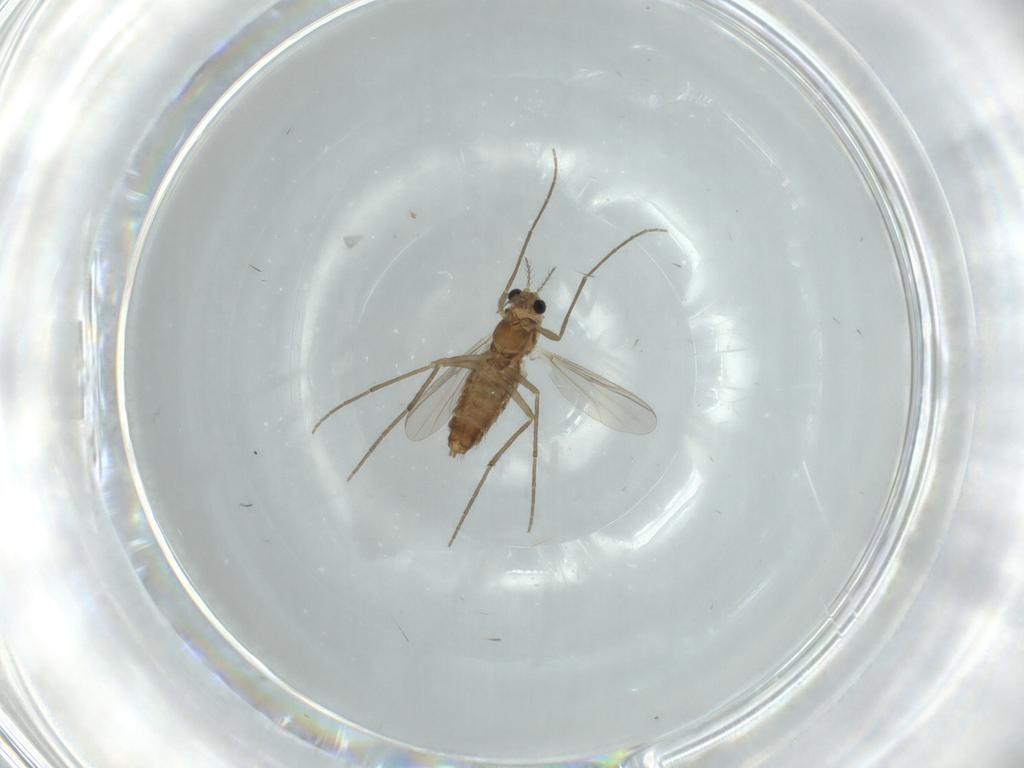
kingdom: Animalia
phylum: Arthropoda
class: Insecta
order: Diptera
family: Chironomidae
